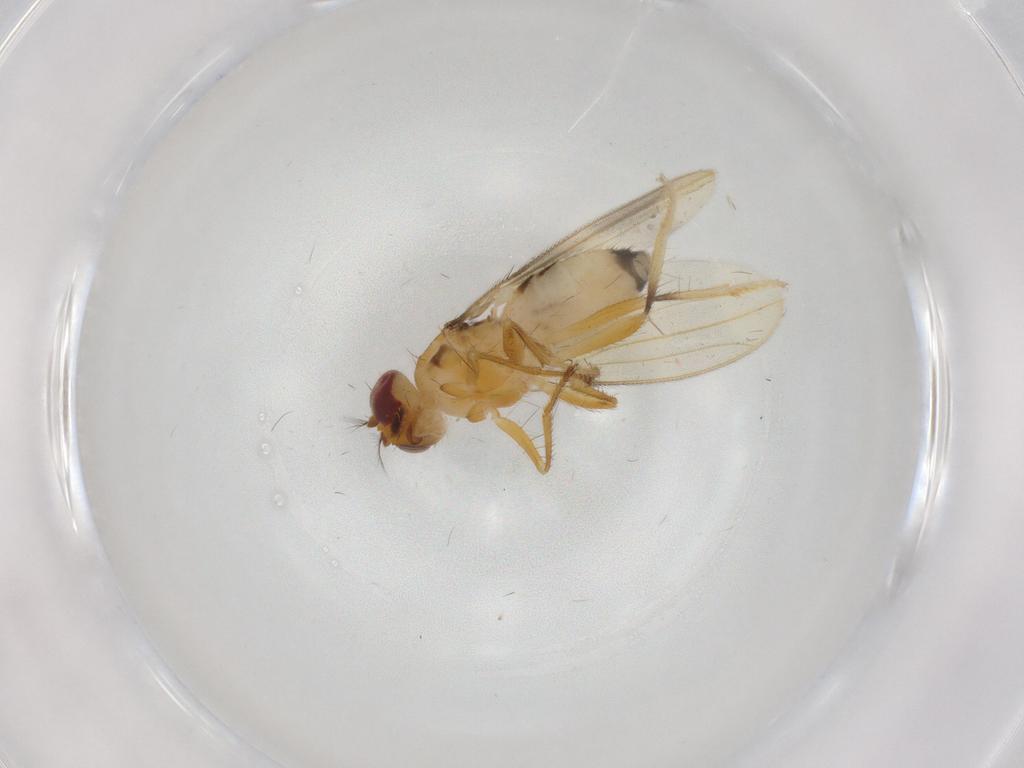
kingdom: Animalia
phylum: Arthropoda
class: Insecta
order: Diptera
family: Periscelididae
